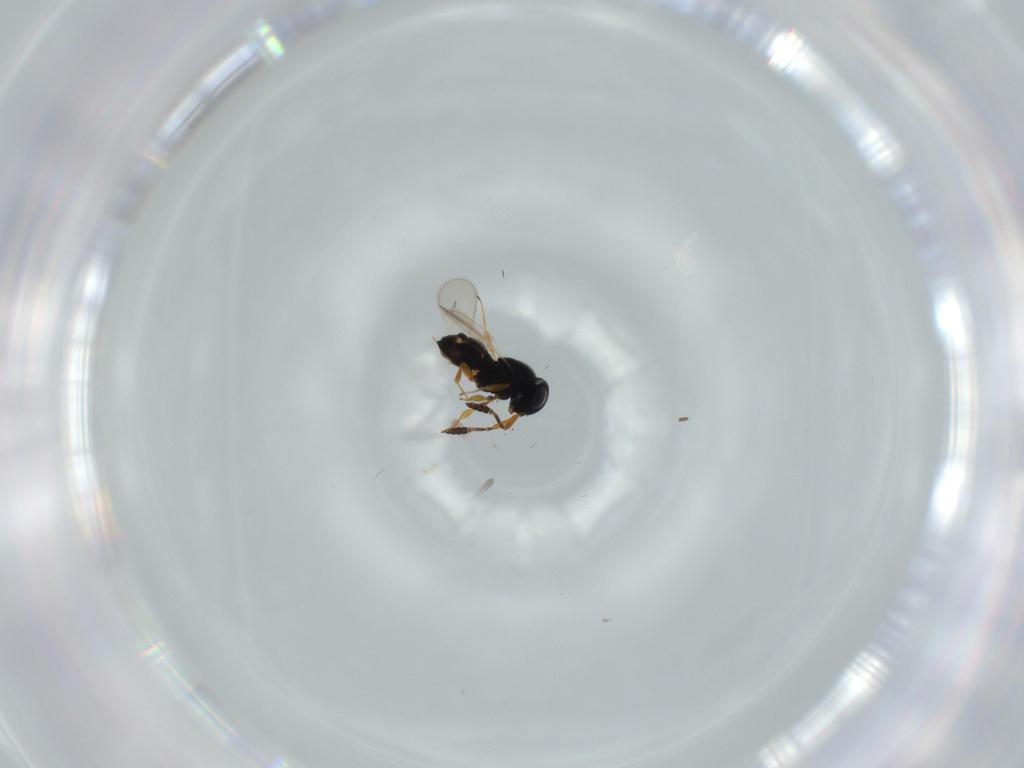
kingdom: Animalia
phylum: Arthropoda
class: Insecta
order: Hymenoptera
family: Scelionidae
